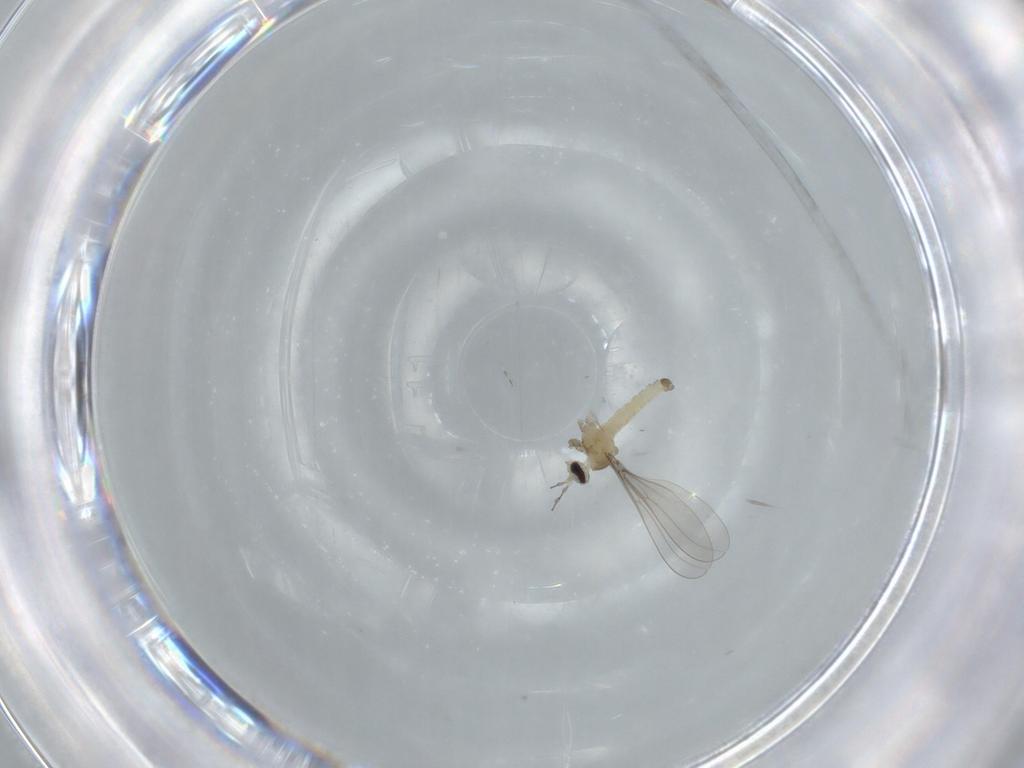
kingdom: Animalia
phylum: Arthropoda
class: Insecta
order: Diptera
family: Cecidomyiidae
